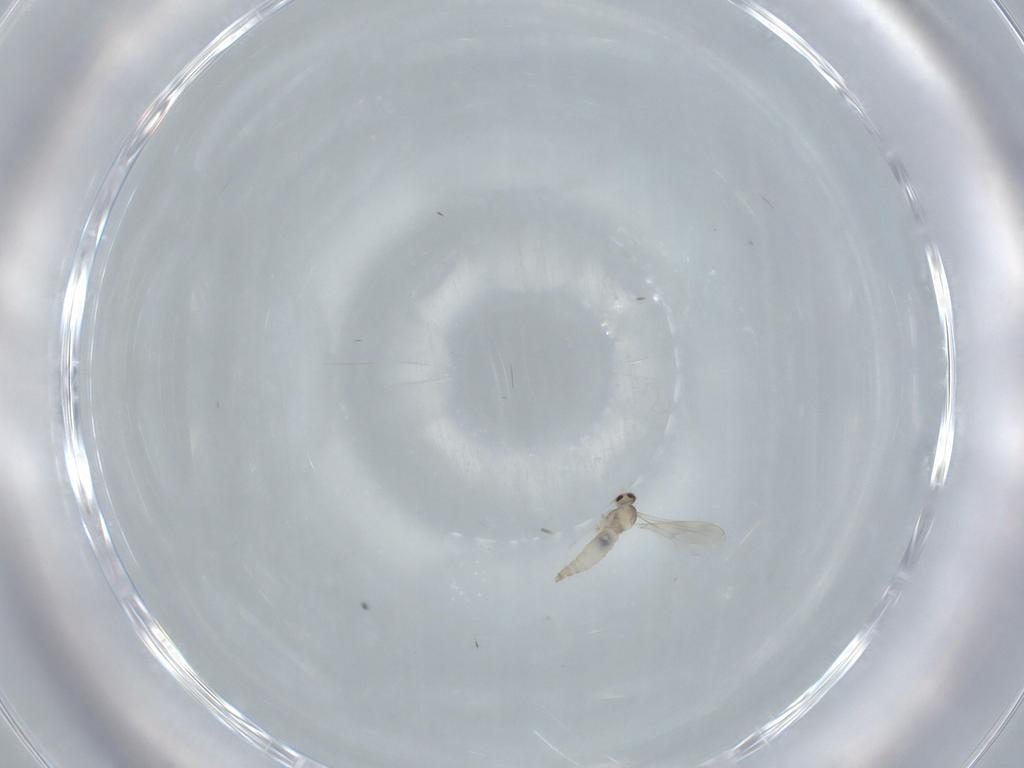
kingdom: Animalia
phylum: Arthropoda
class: Insecta
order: Diptera
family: Cecidomyiidae
